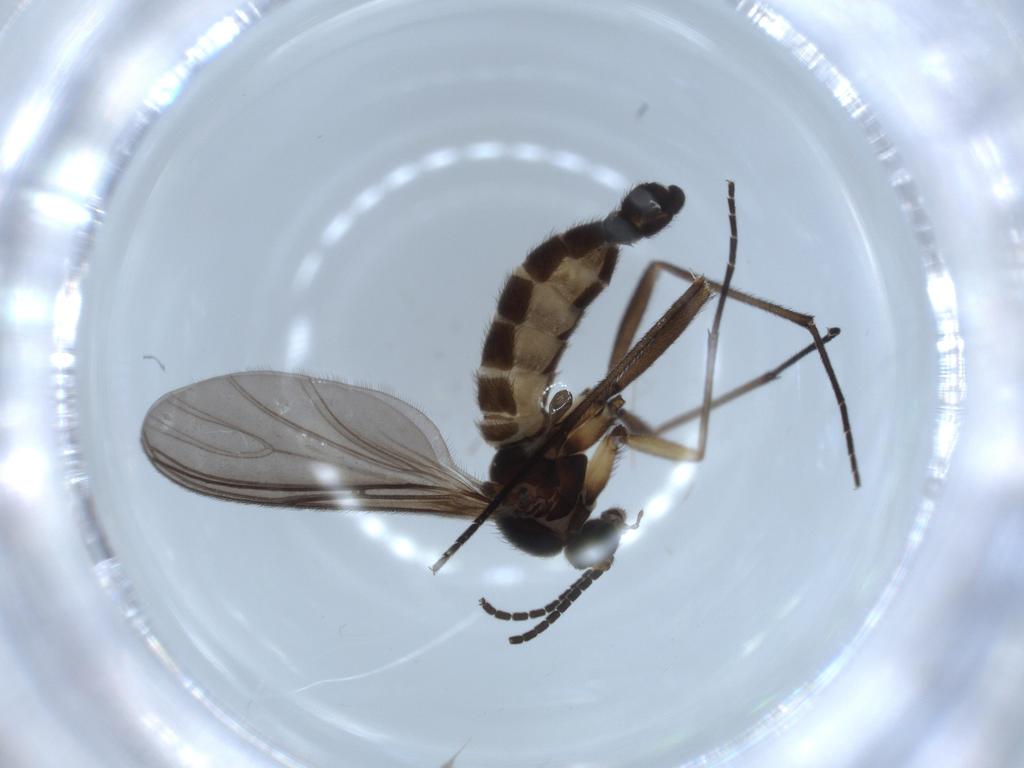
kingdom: Animalia
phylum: Arthropoda
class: Insecta
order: Diptera
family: Sciaridae
